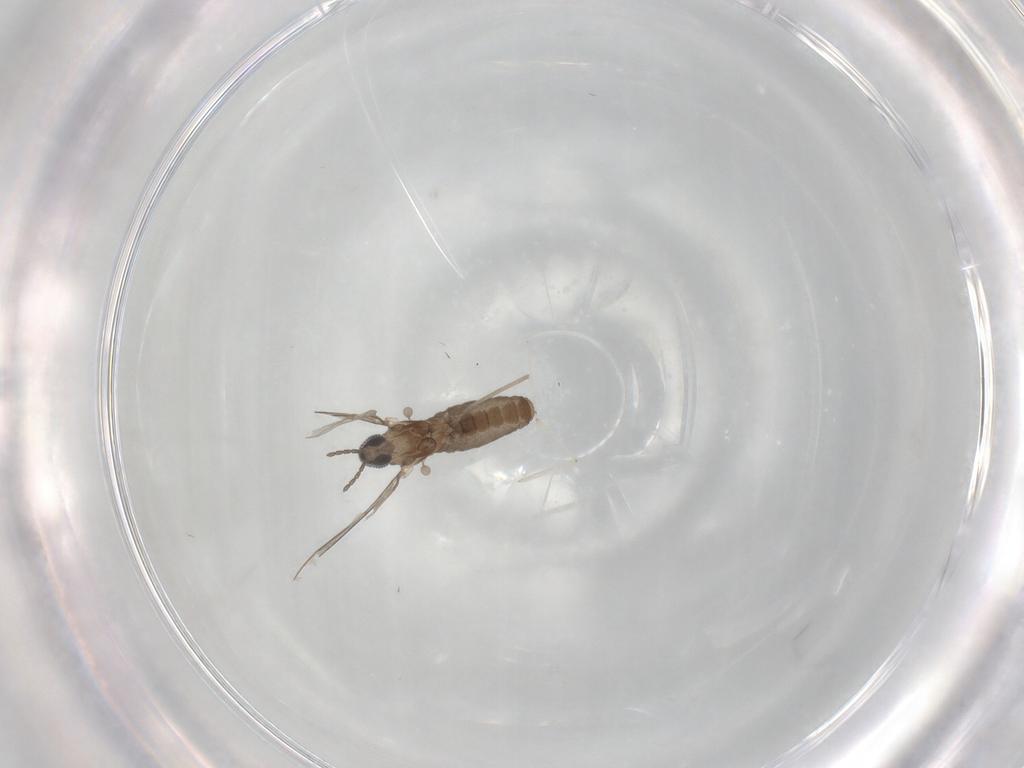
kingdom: Animalia
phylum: Arthropoda
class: Insecta
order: Diptera
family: Cecidomyiidae
